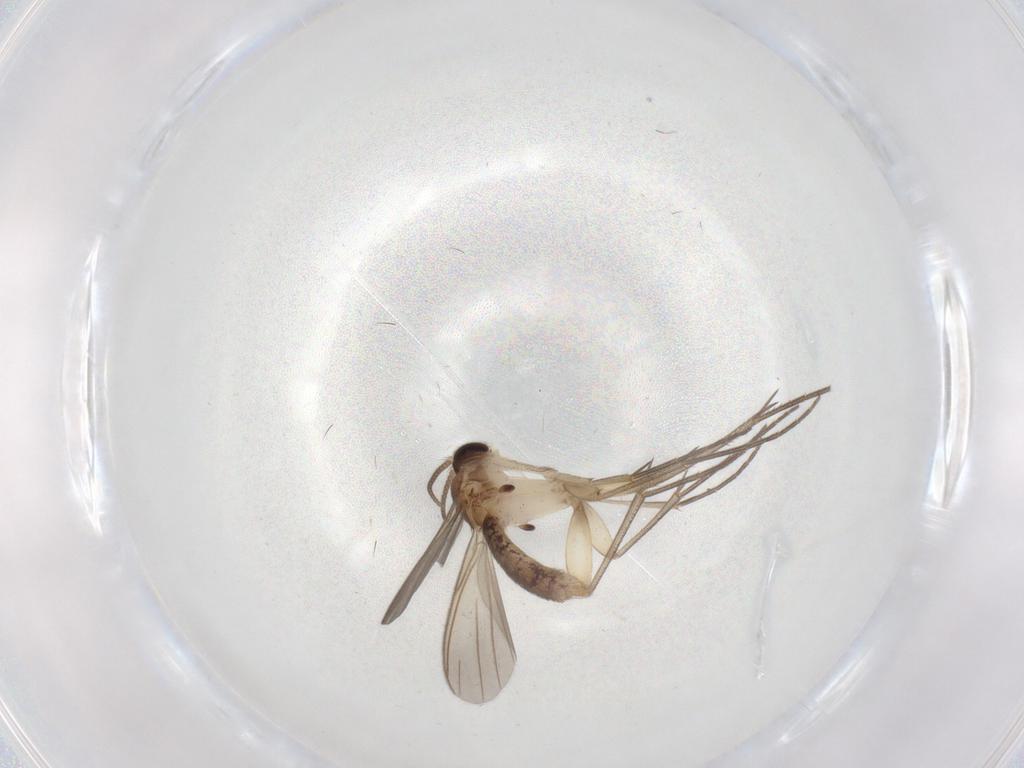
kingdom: Animalia
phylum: Arthropoda
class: Insecta
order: Diptera
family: Mycetophilidae
